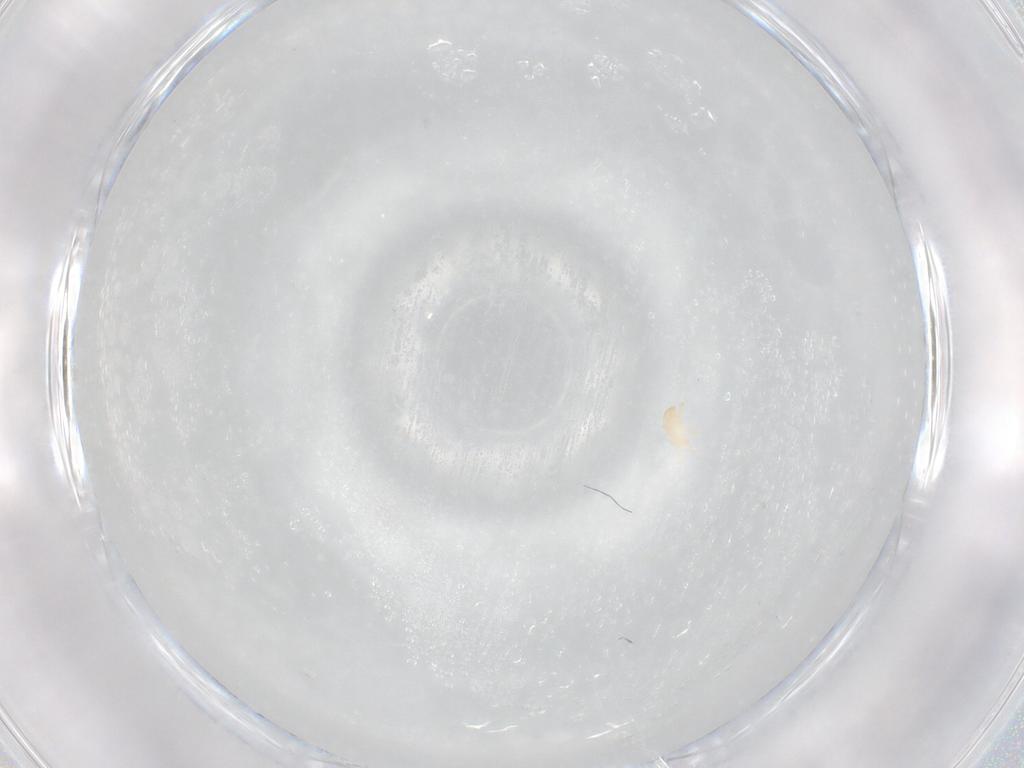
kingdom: Animalia
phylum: Arthropoda
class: Arachnida
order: Mesostigmata
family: Digamasellidae
